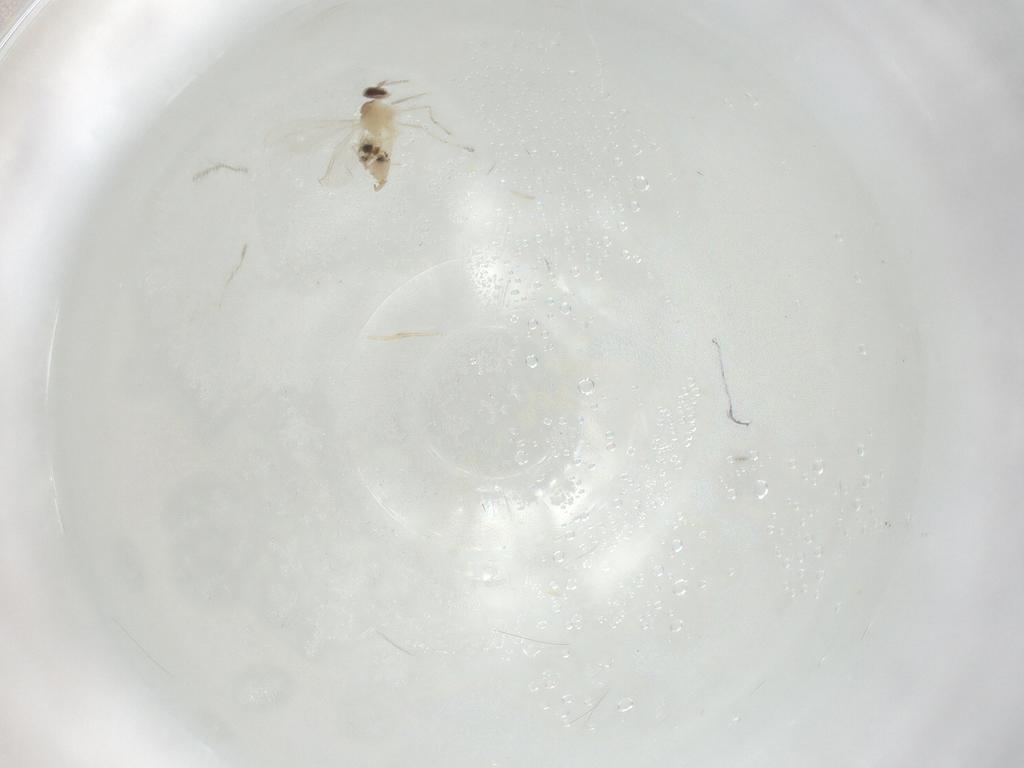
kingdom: Animalia
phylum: Arthropoda
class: Insecta
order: Diptera
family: Cecidomyiidae
